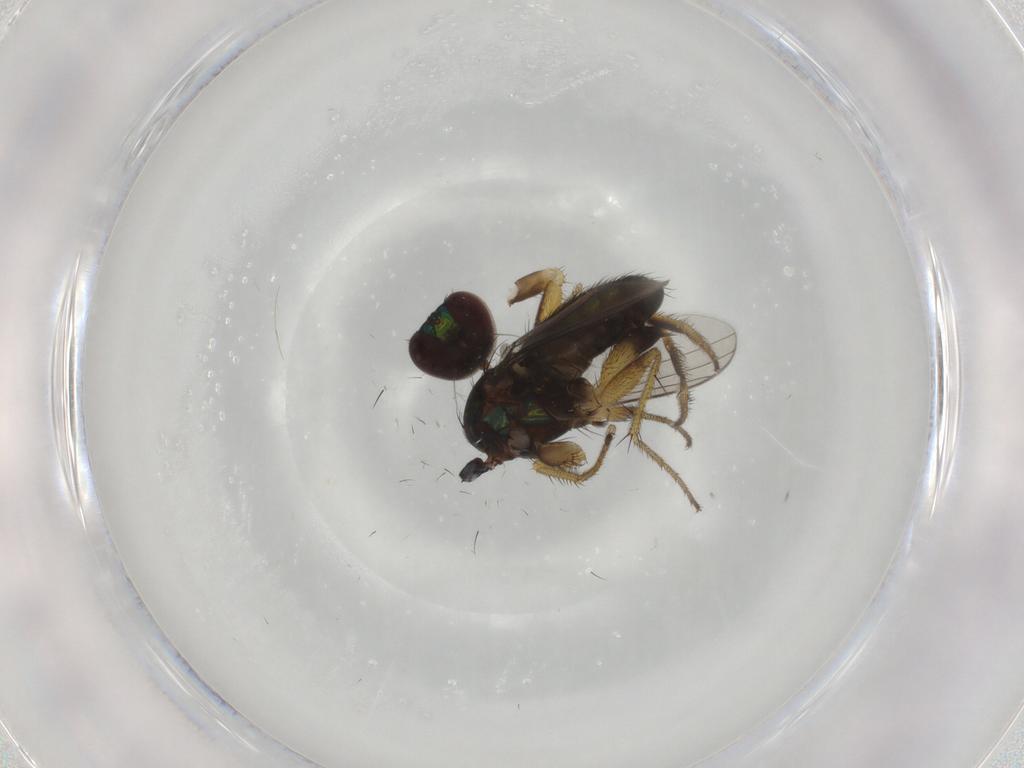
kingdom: Animalia
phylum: Arthropoda
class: Insecta
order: Diptera
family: Dolichopodidae
